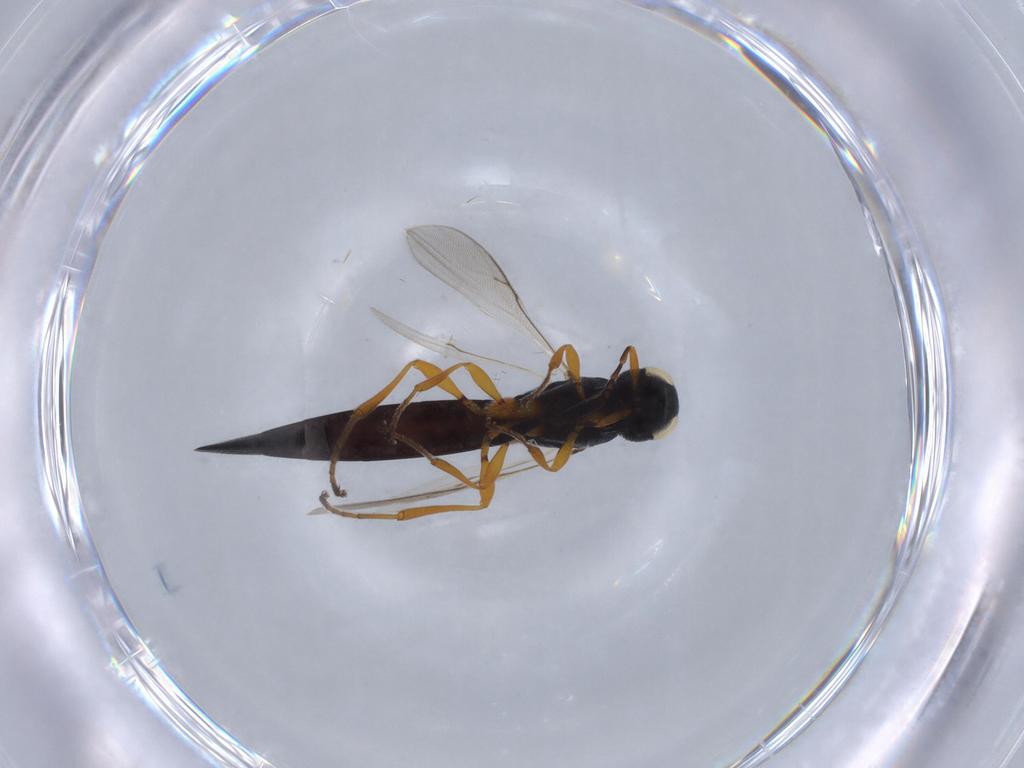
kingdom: Animalia
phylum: Arthropoda
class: Insecta
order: Hymenoptera
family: Scelionidae
